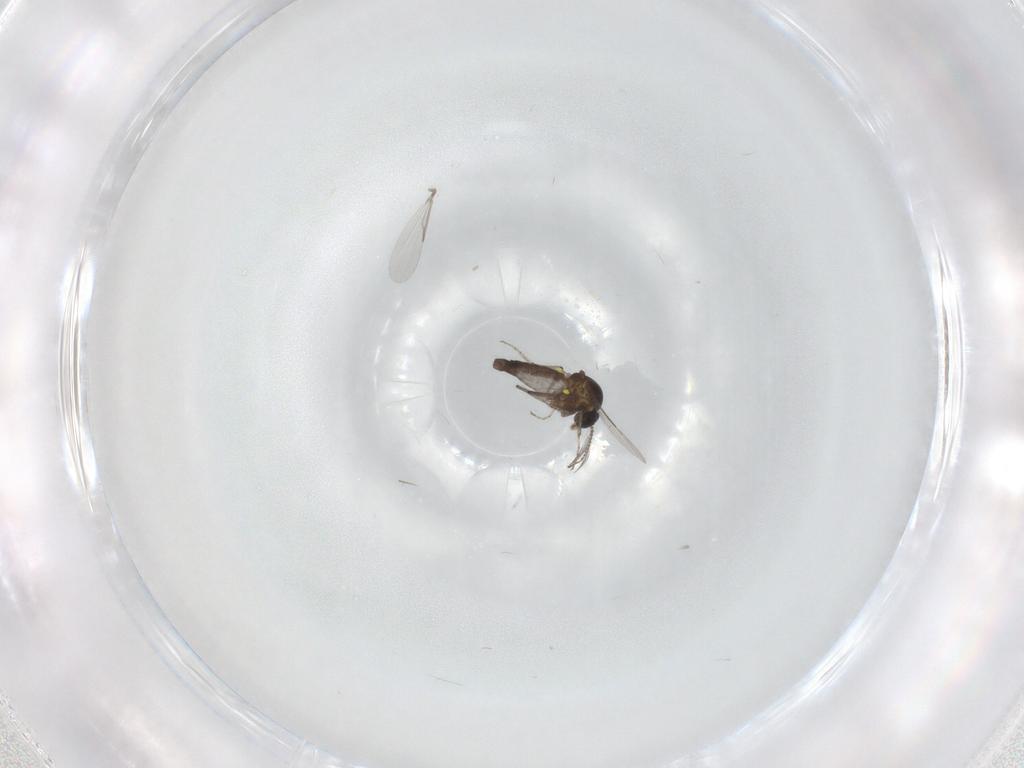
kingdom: Animalia
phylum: Arthropoda
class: Insecta
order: Diptera
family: Ceratopogonidae
